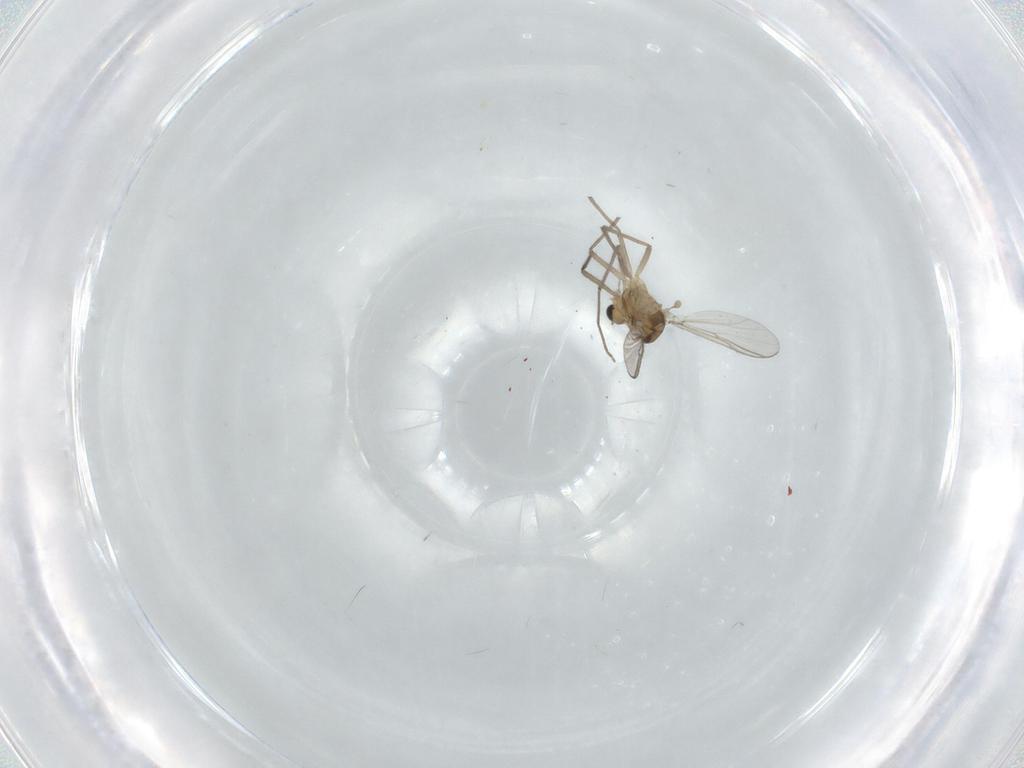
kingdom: Animalia
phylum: Arthropoda
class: Insecta
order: Diptera
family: Chironomidae
